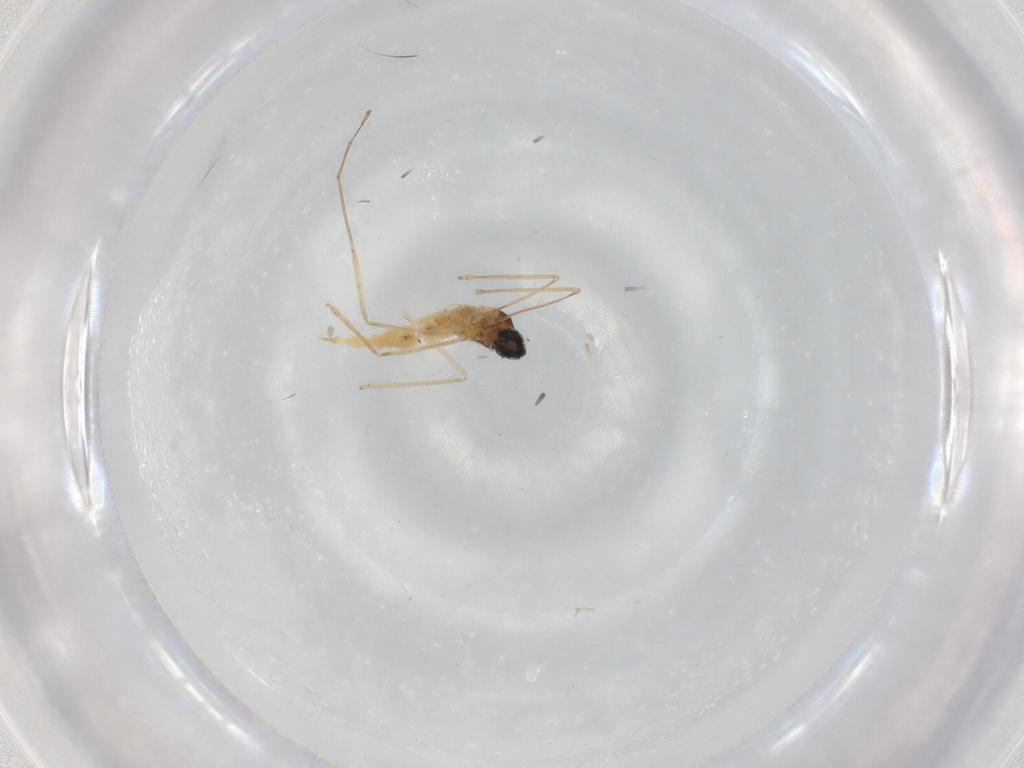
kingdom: Animalia
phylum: Arthropoda
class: Insecta
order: Diptera
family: Cecidomyiidae
